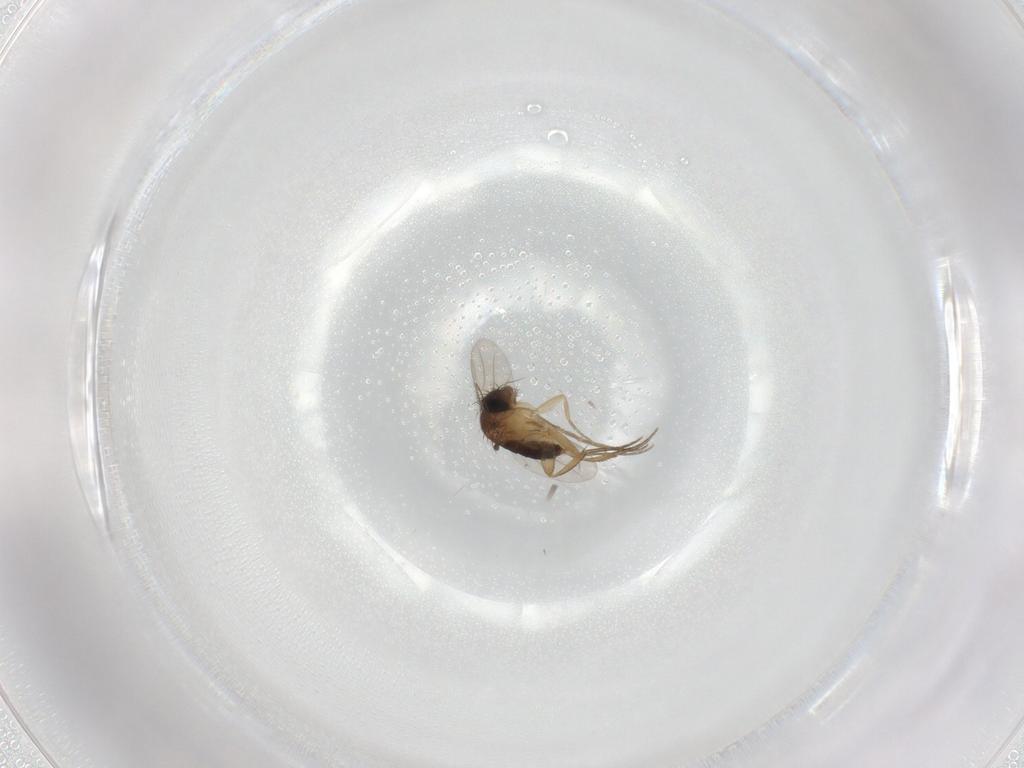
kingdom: Animalia
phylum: Arthropoda
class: Insecta
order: Diptera
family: Phoridae
